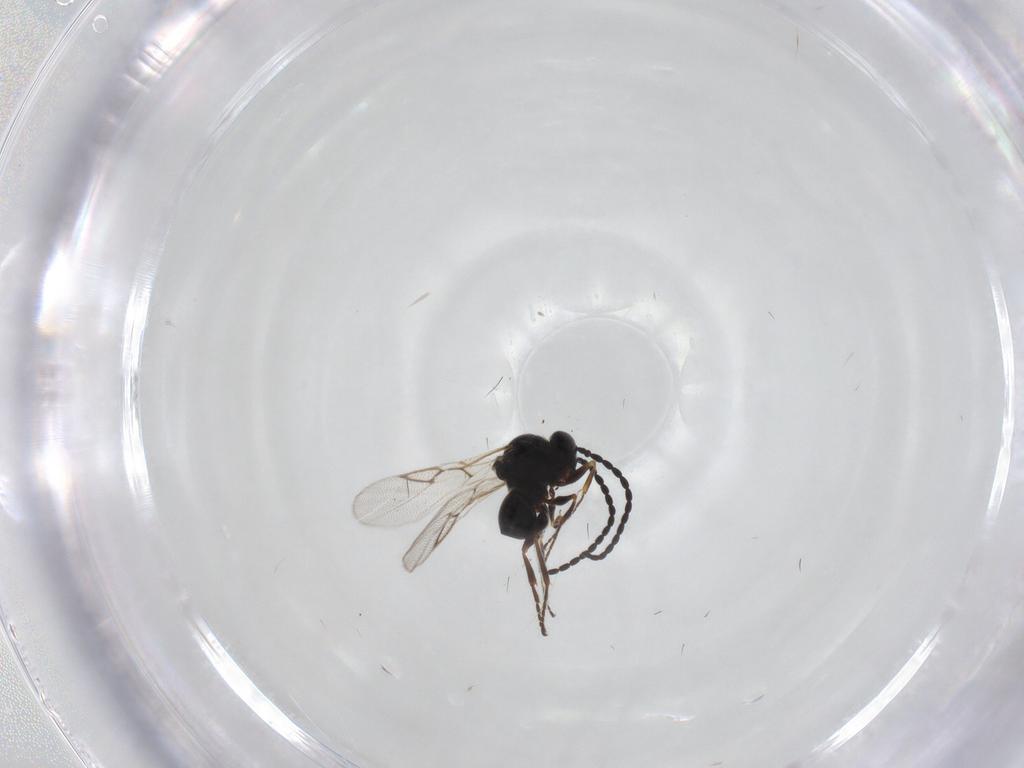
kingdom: Animalia
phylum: Arthropoda
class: Insecta
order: Hymenoptera
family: Figitidae
